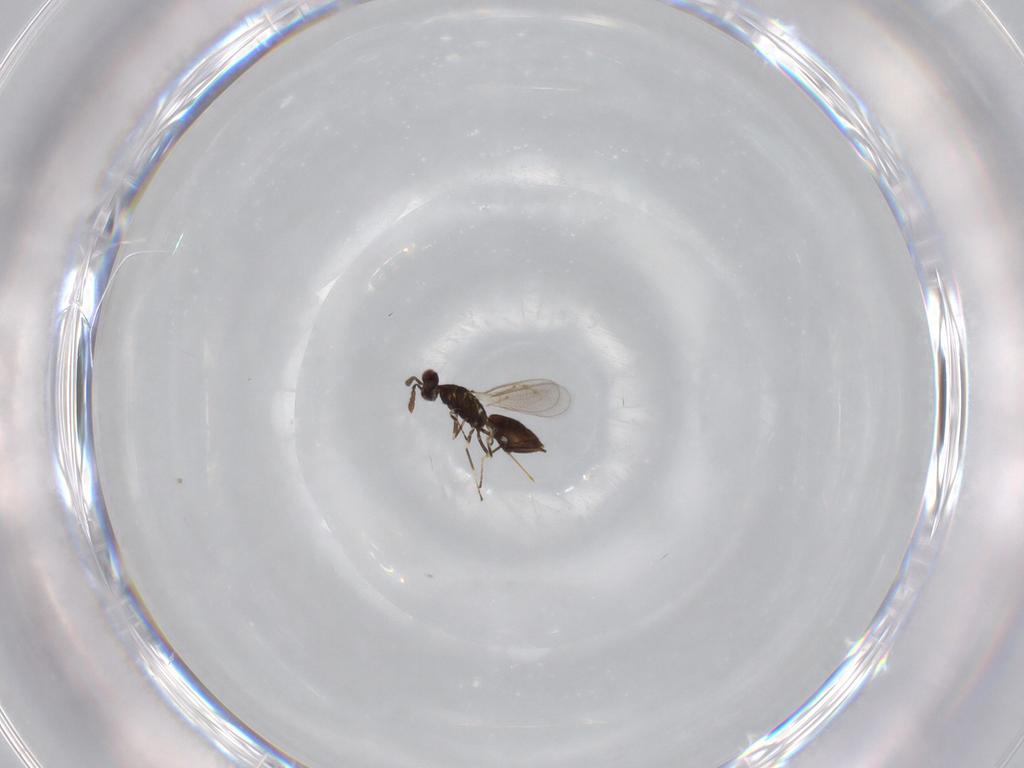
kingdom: Animalia
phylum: Arthropoda
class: Insecta
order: Hymenoptera
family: Eulophidae
